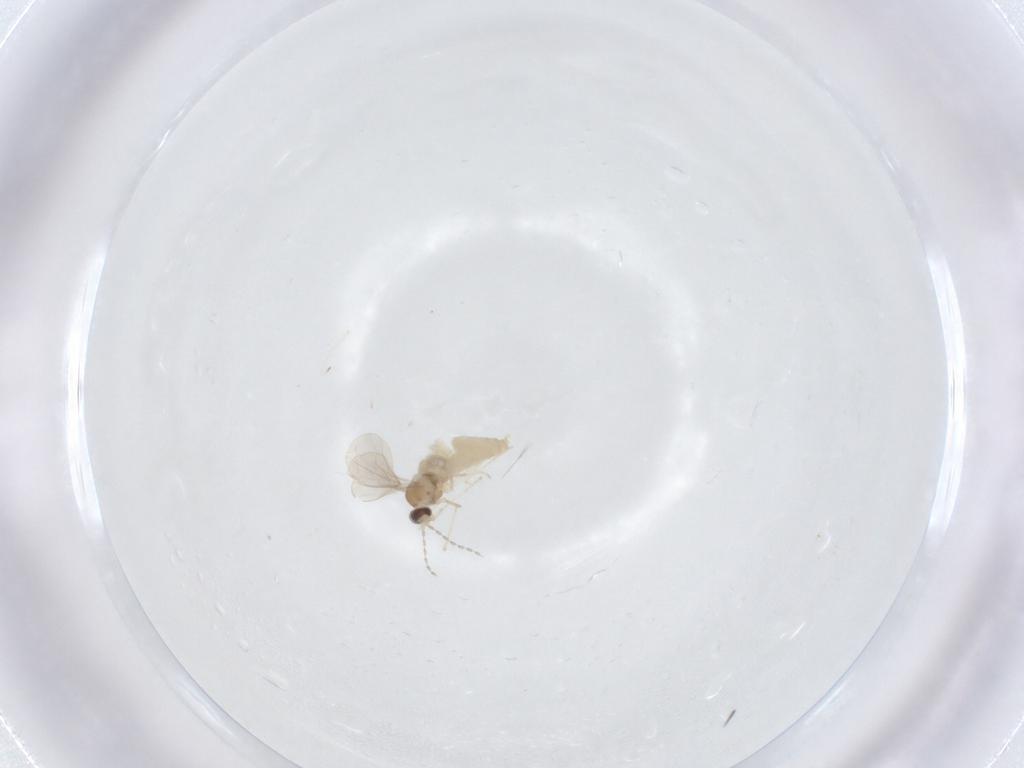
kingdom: Animalia
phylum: Arthropoda
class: Insecta
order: Diptera
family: Cecidomyiidae
